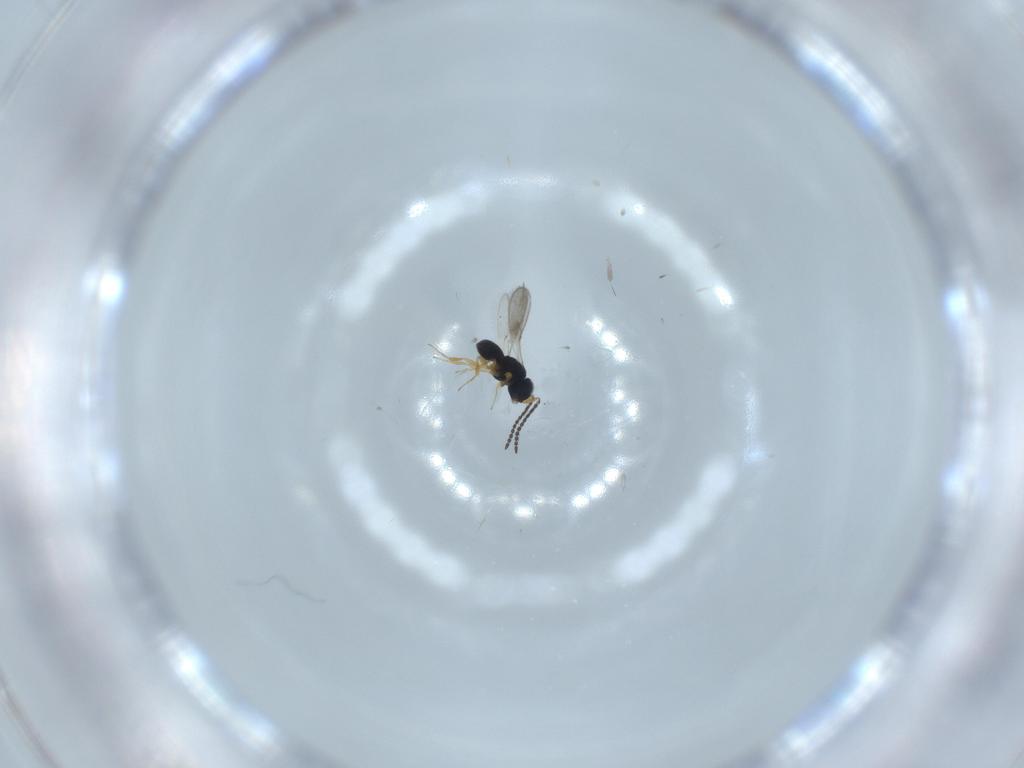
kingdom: Animalia
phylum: Arthropoda
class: Insecta
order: Hymenoptera
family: Scelionidae
